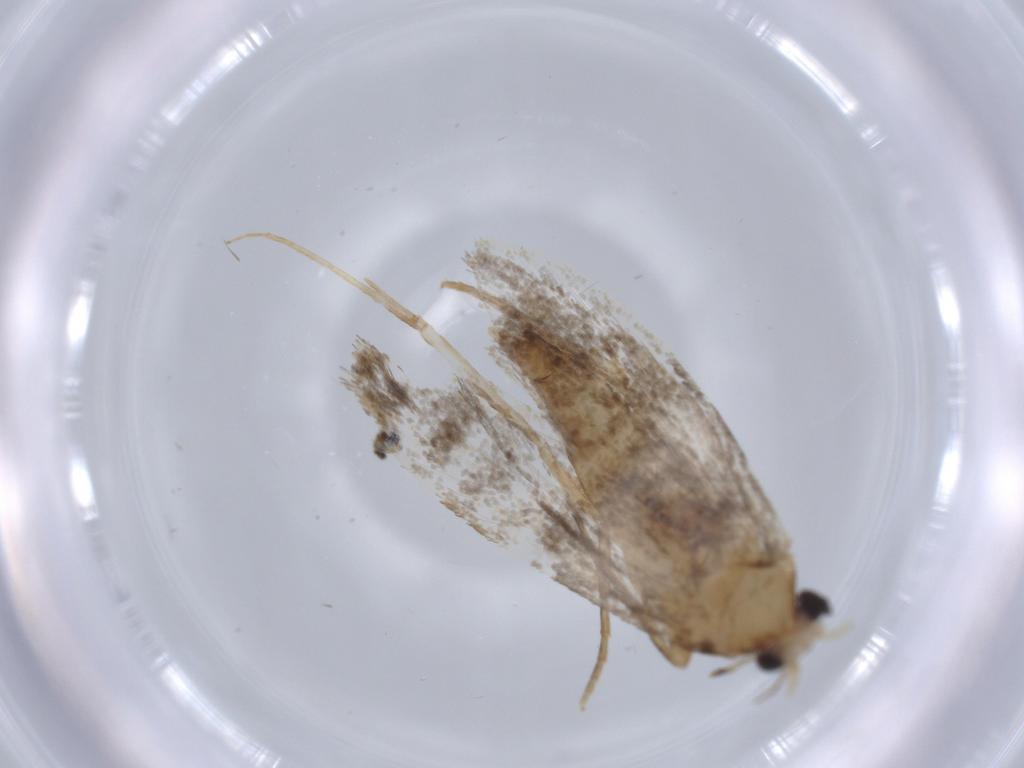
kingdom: Animalia
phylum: Arthropoda
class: Insecta
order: Lepidoptera
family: Tineidae
